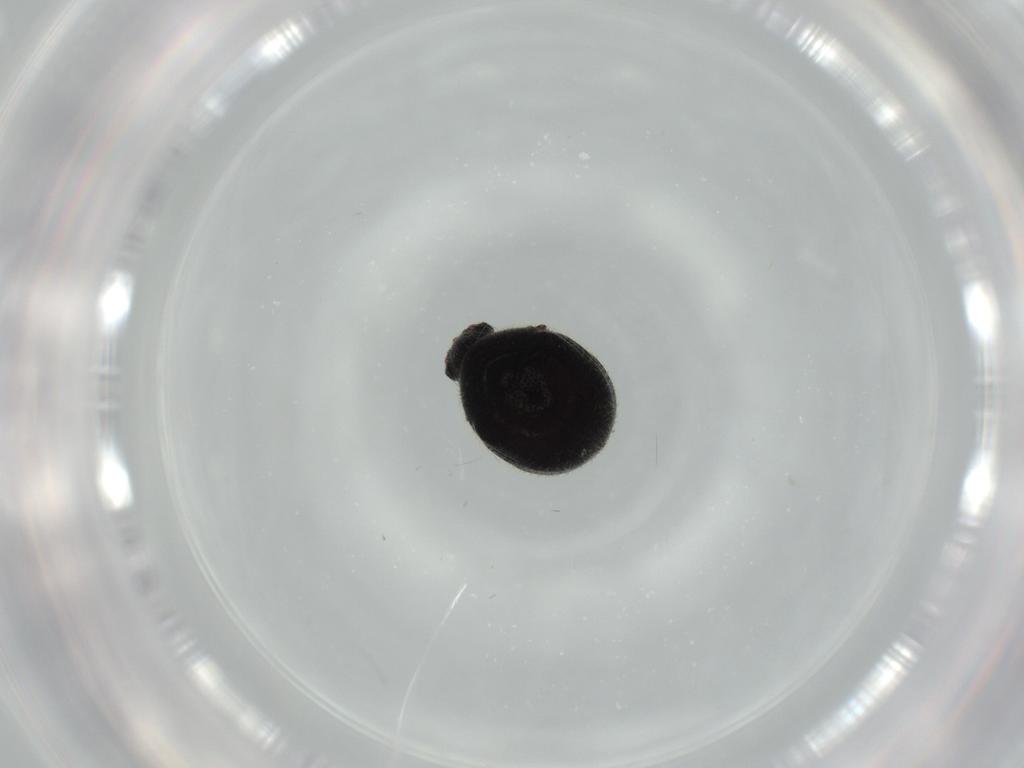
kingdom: Animalia
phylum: Arthropoda
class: Insecta
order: Coleoptera
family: Ptinidae
